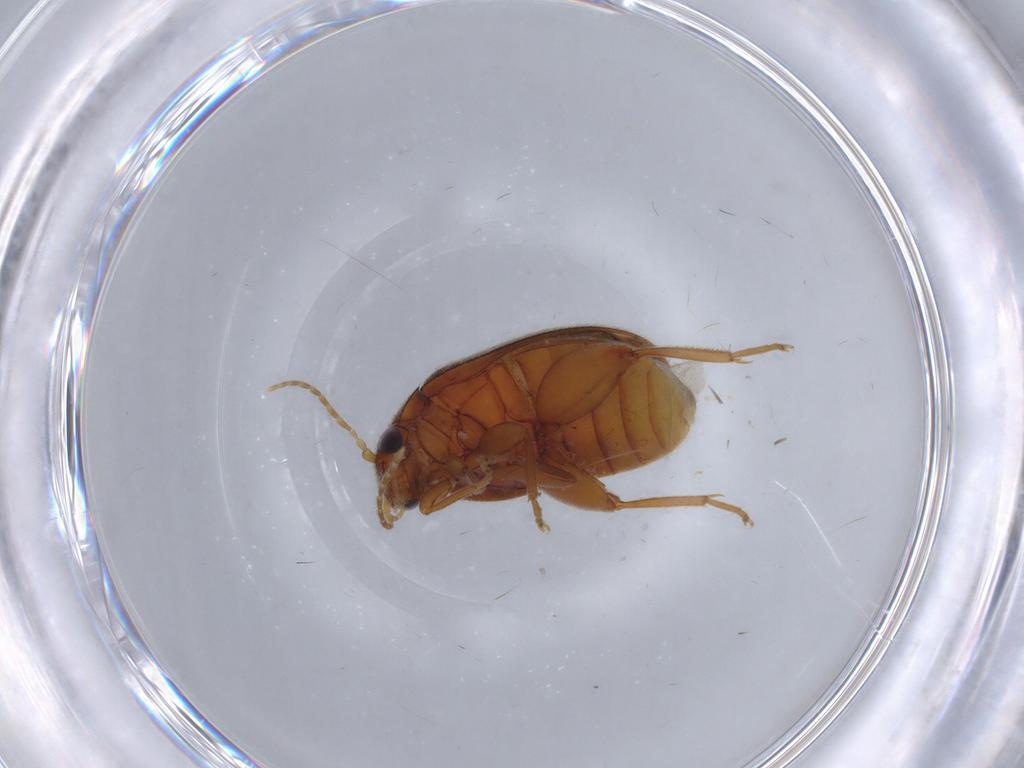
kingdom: Animalia
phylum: Arthropoda
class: Insecta
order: Coleoptera
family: Scirtidae
